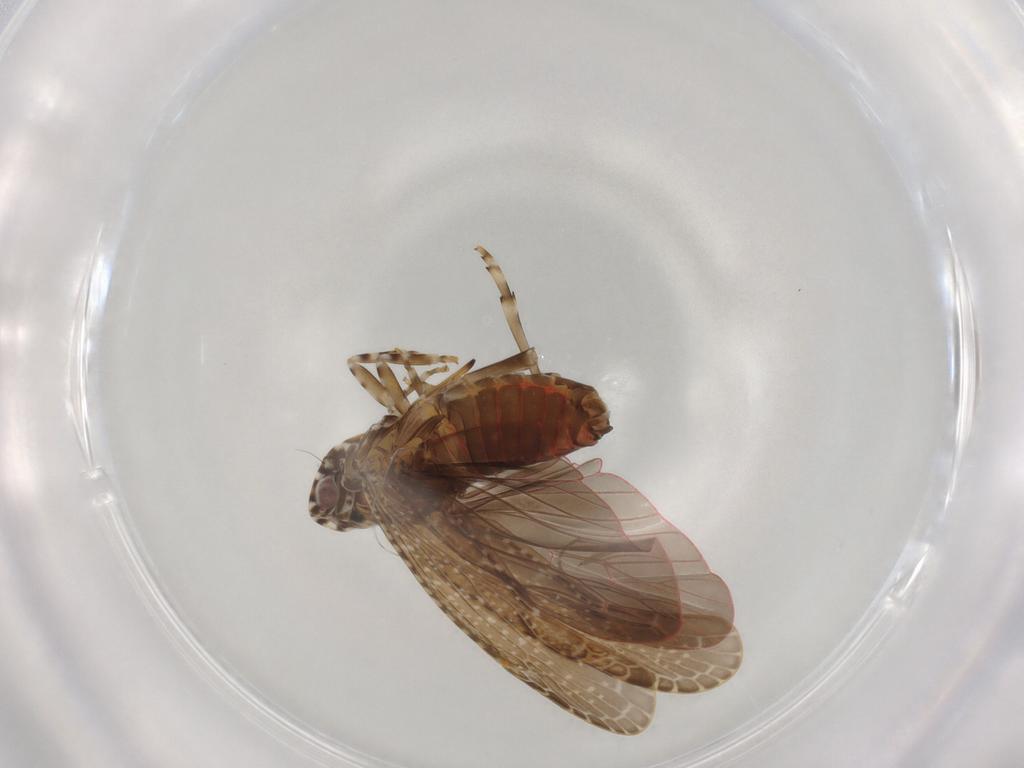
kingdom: Animalia
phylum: Arthropoda
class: Insecta
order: Hemiptera
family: Achilidae
